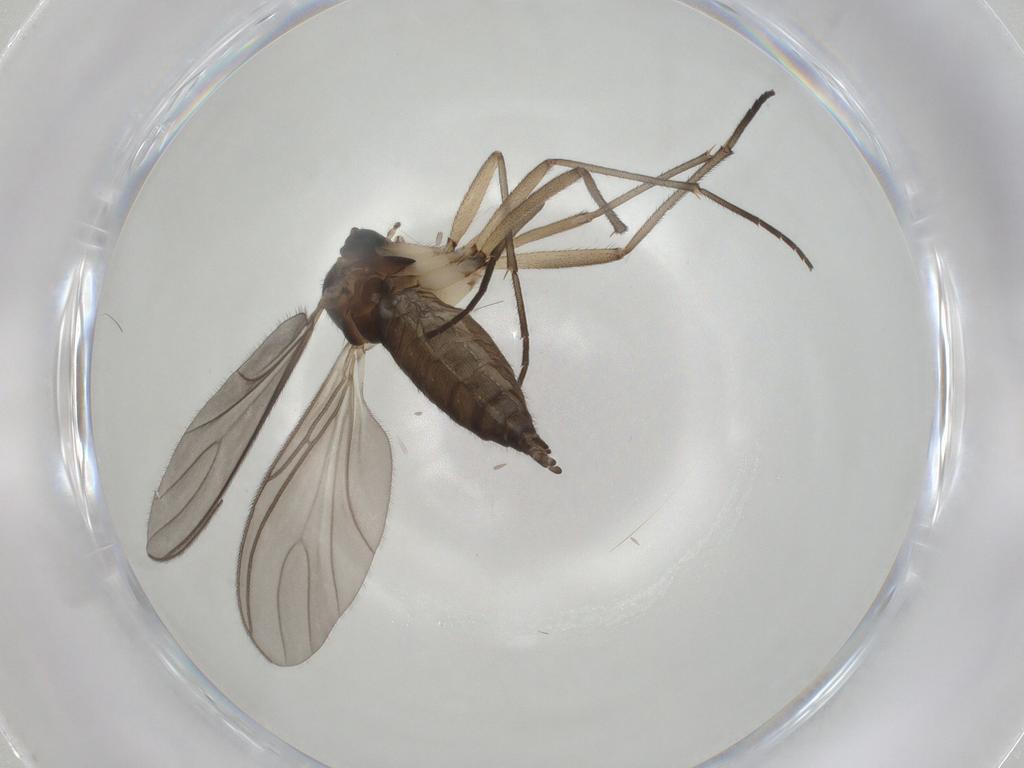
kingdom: Animalia
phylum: Arthropoda
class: Insecta
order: Diptera
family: Sciaridae
